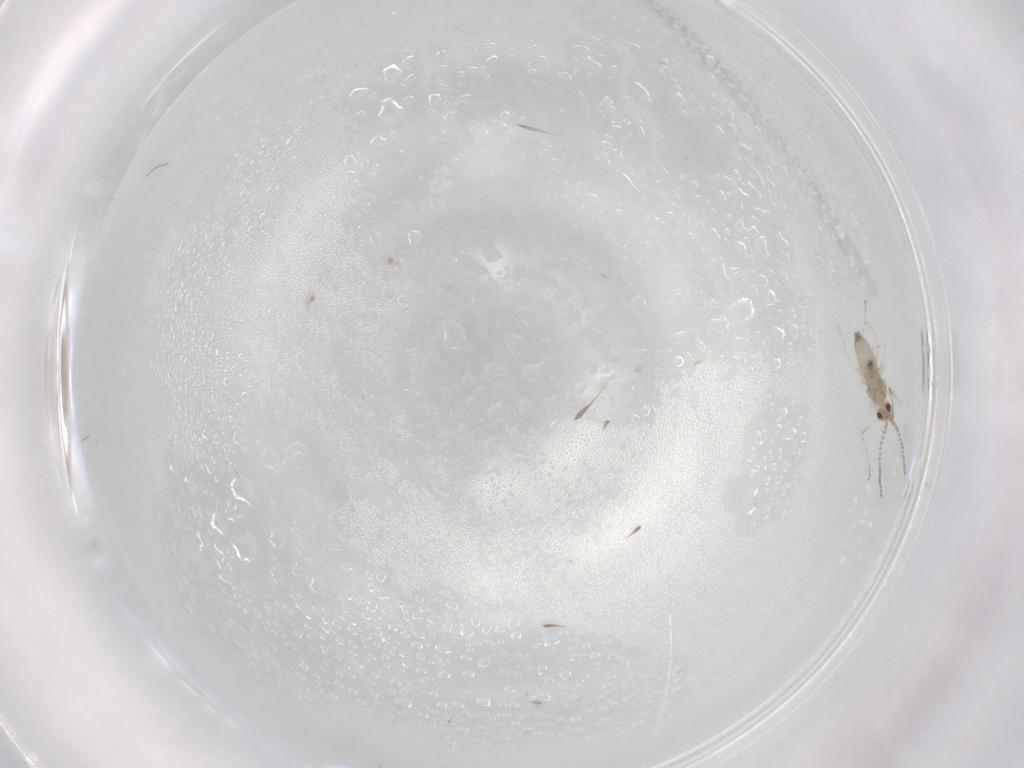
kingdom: Animalia
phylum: Arthropoda
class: Insecta
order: Diptera
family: Cecidomyiidae
